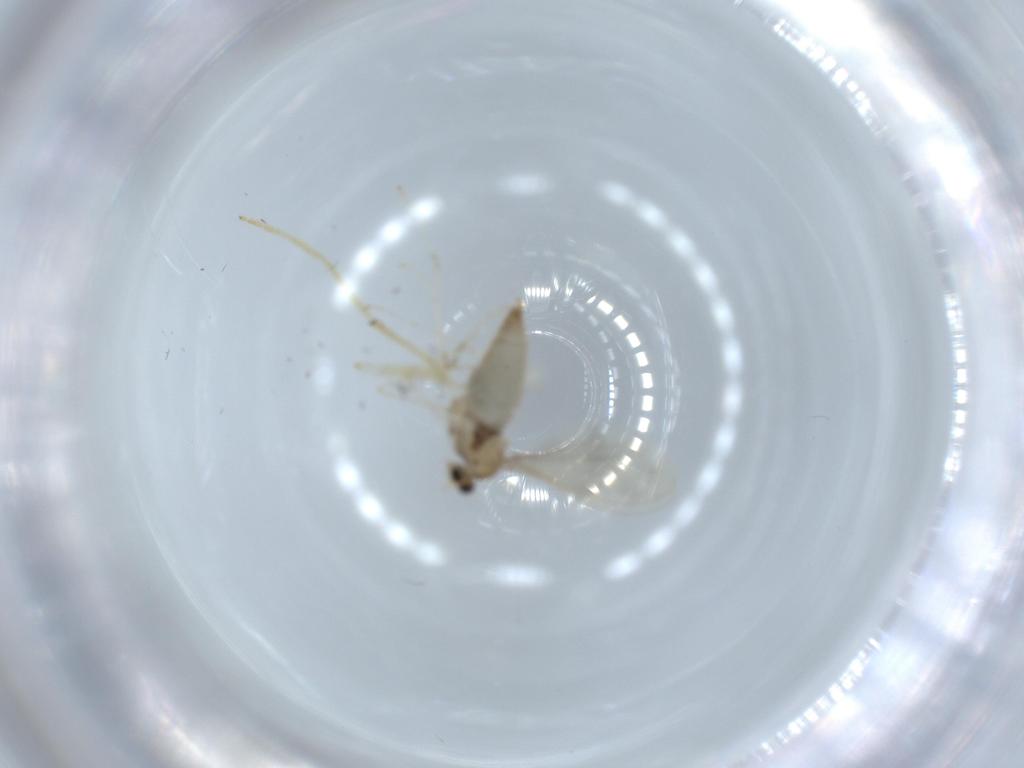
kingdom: Animalia
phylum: Arthropoda
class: Insecta
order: Diptera
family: Chironomidae
